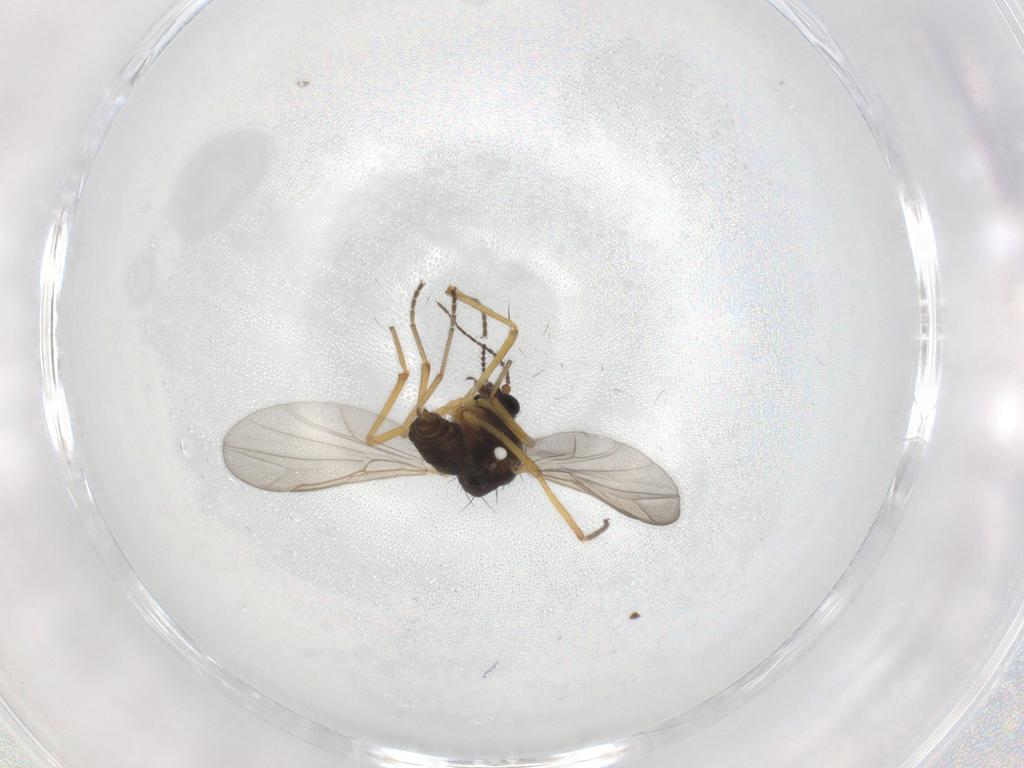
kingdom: Animalia
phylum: Arthropoda
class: Insecta
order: Diptera
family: Ceratopogonidae
